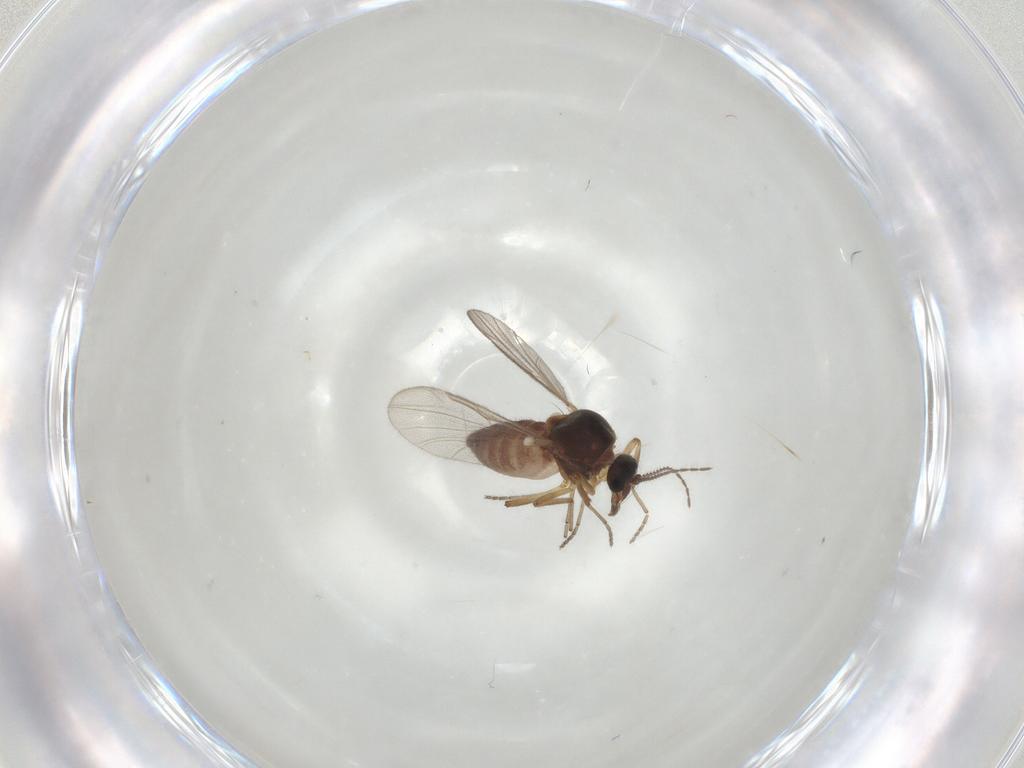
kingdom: Animalia
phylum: Arthropoda
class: Insecta
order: Diptera
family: Ceratopogonidae
